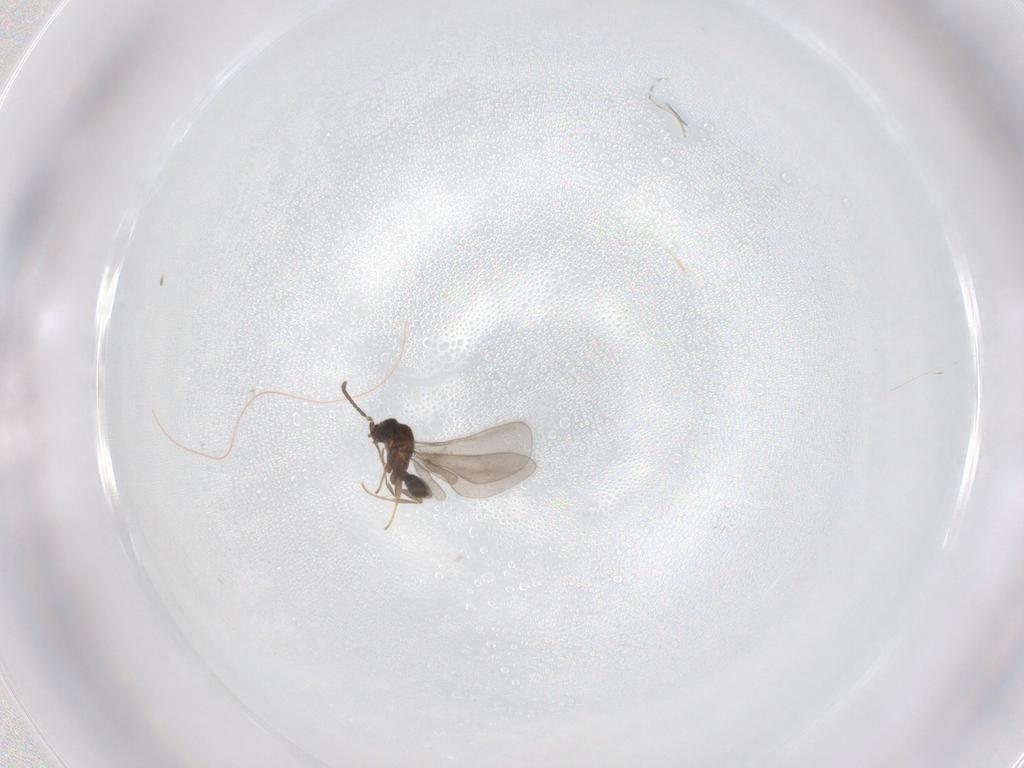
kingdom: Animalia
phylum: Arthropoda
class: Insecta
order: Hymenoptera
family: Formicidae
